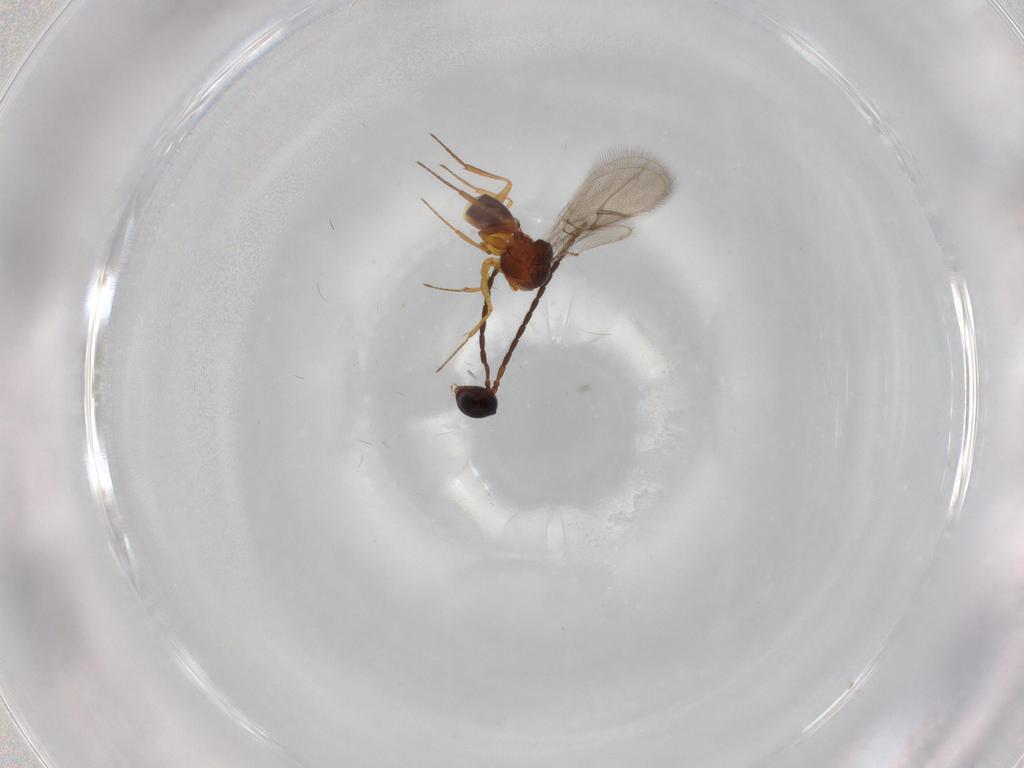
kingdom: Animalia
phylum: Arthropoda
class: Insecta
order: Hymenoptera
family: Figitidae
